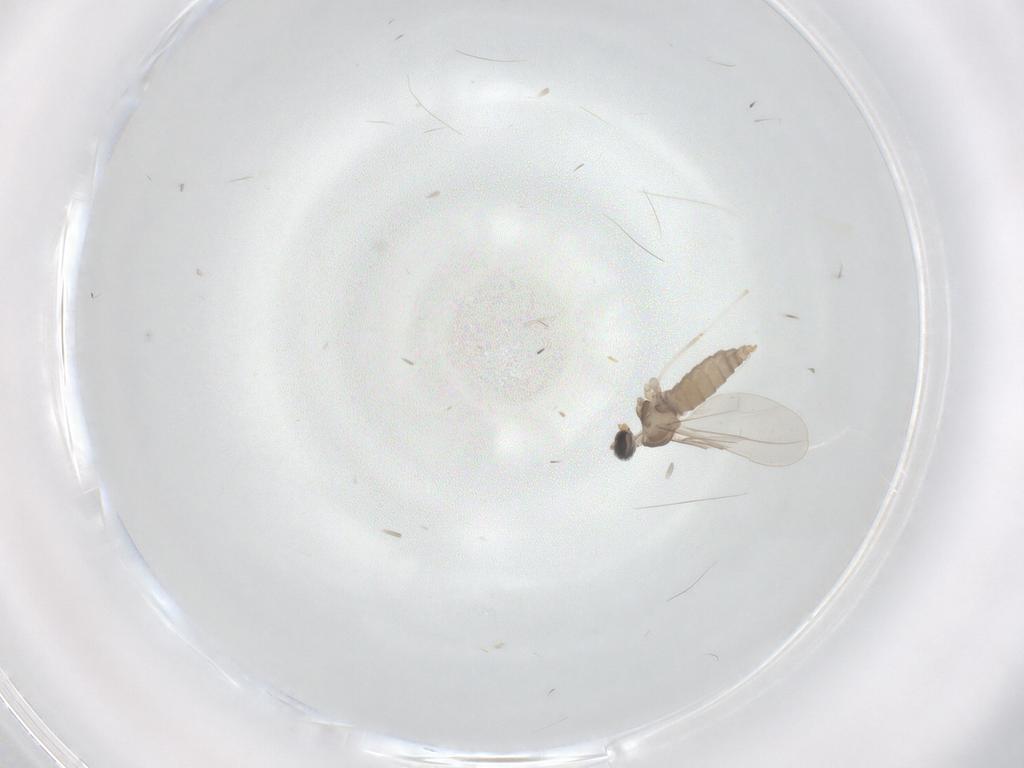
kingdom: Animalia
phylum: Arthropoda
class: Insecta
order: Diptera
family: Cecidomyiidae
